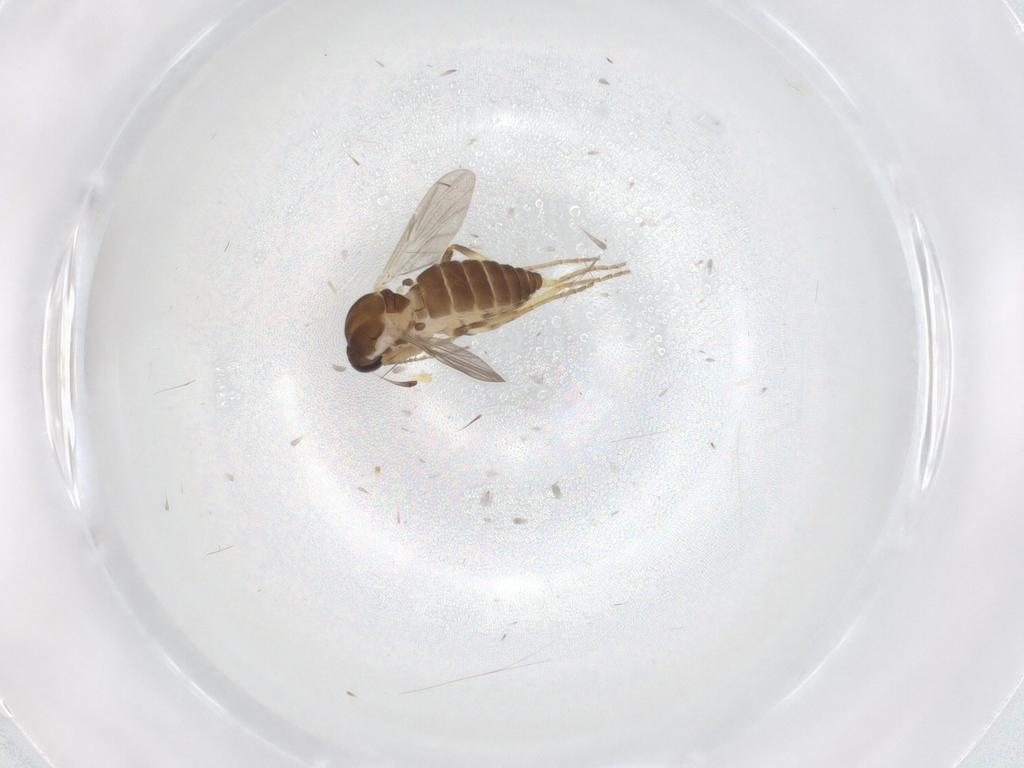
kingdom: Animalia
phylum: Arthropoda
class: Insecta
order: Diptera
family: Ceratopogonidae
